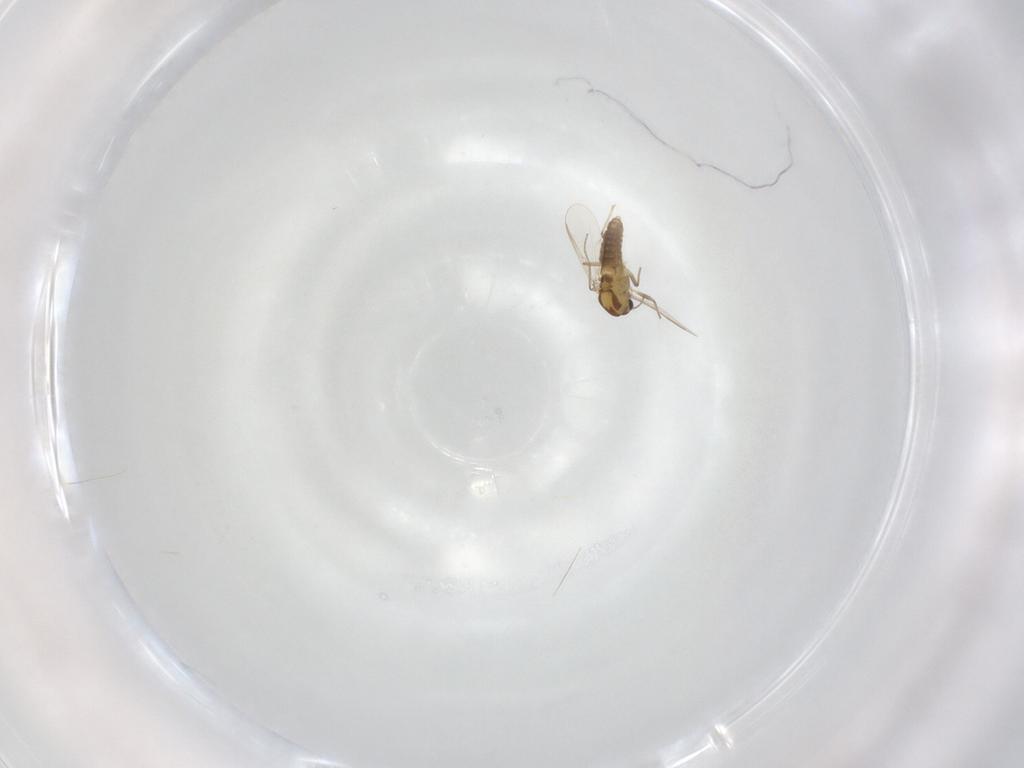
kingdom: Animalia
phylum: Arthropoda
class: Insecta
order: Diptera
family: Chironomidae
